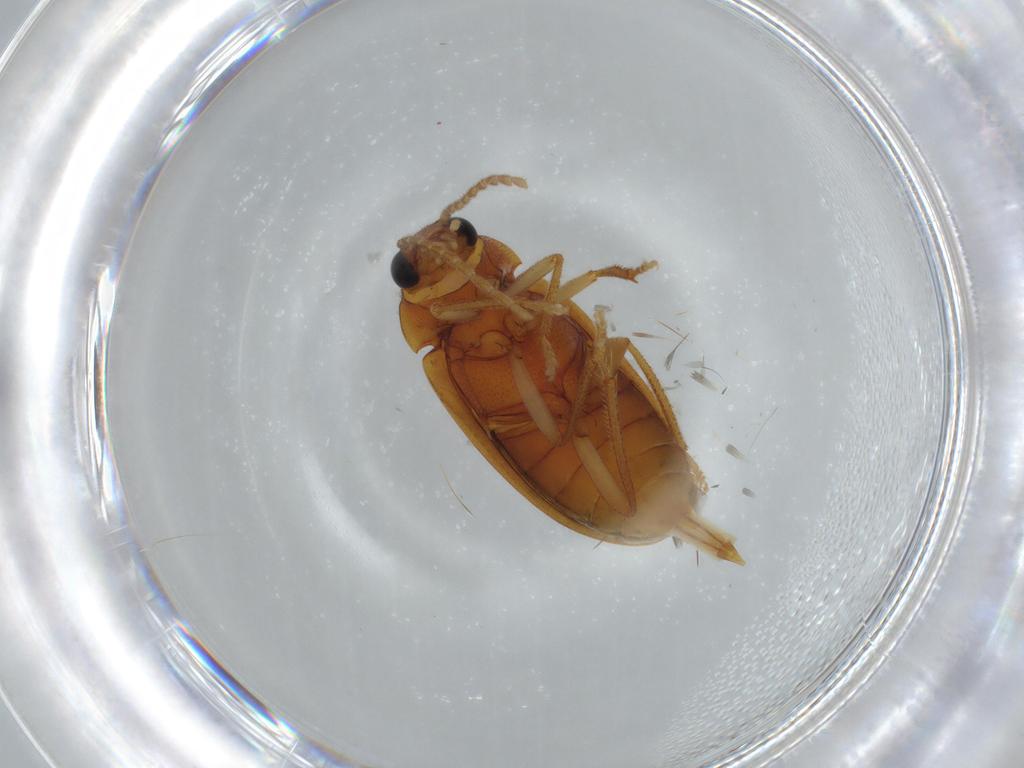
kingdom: Animalia
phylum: Arthropoda
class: Insecta
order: Coleoptera
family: Ptilodactylidae
